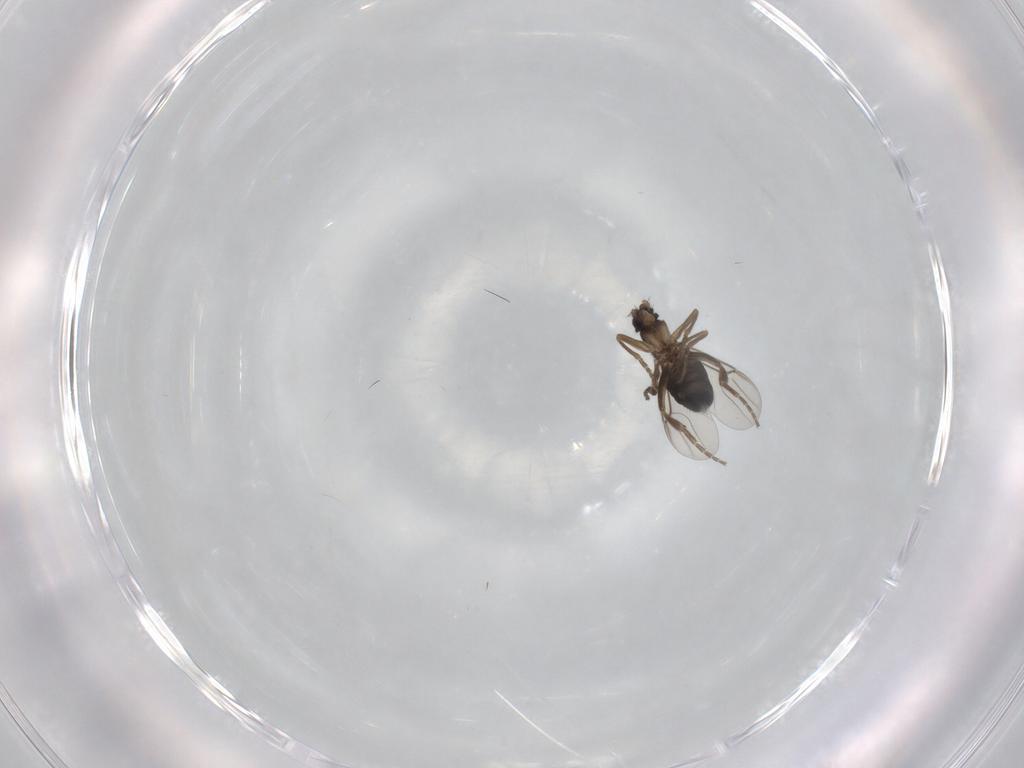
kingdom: Animalia
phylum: Arthropoda
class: Insecta
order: Diptera
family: Phoridae
